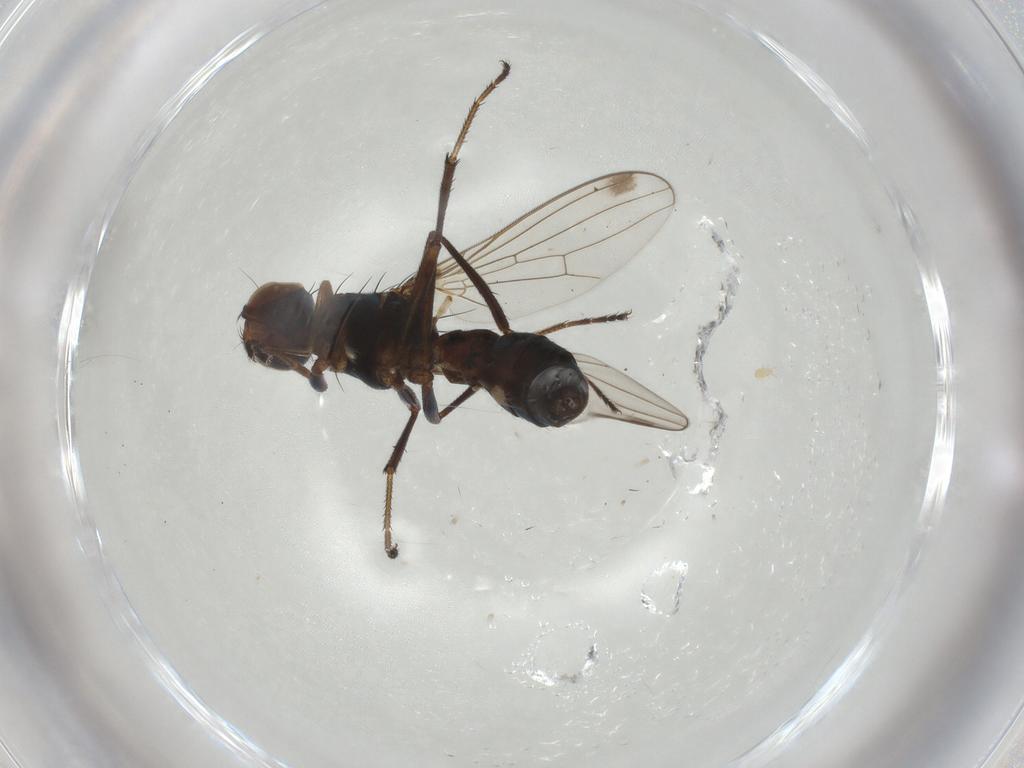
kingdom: Animalia
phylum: Arthropoda
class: Insecta
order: Diptera
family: Sepsidae
